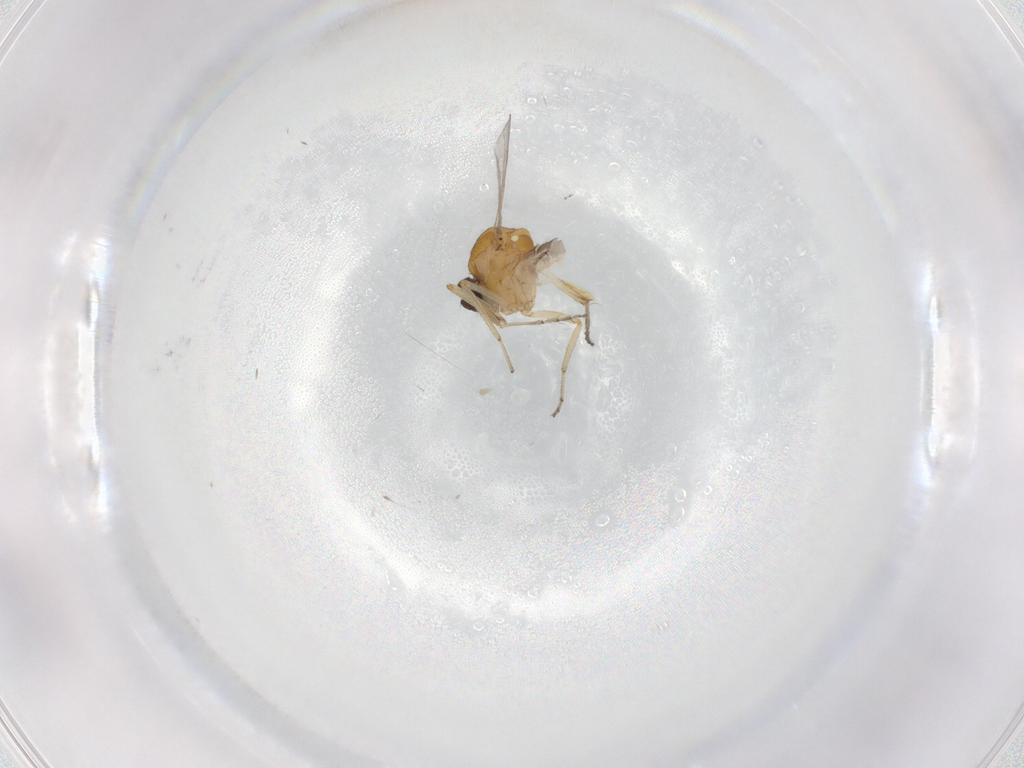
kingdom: Animalia
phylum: Arthropoda
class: Insecta
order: Diptera
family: Ceratopogonidae
